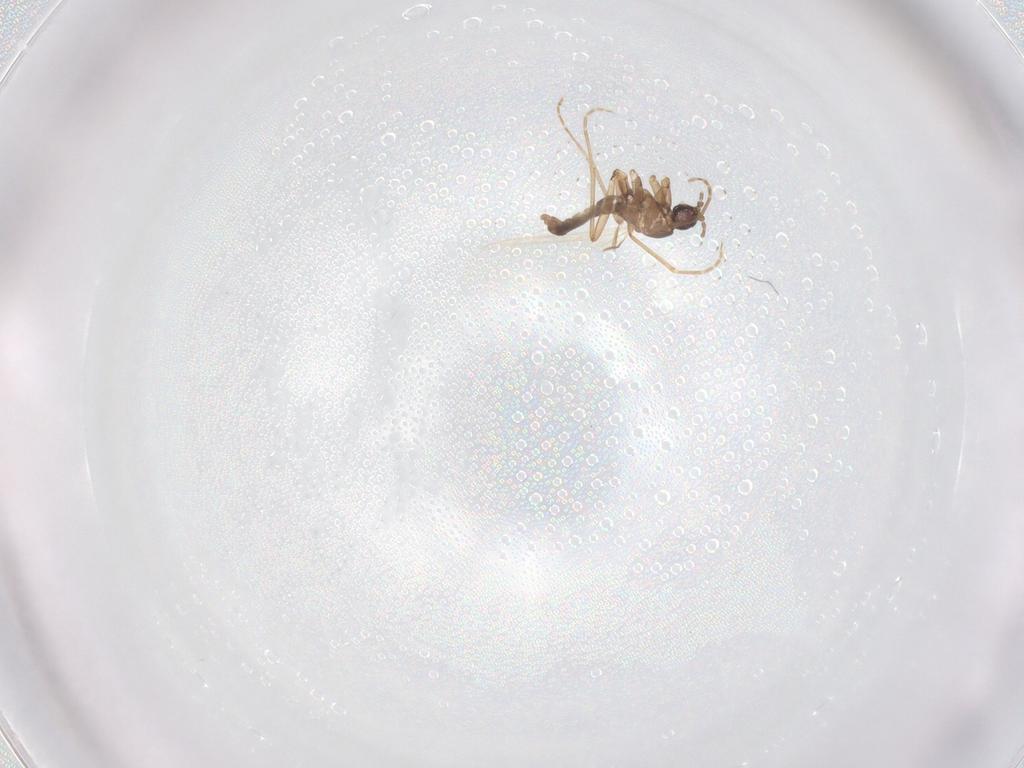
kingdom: Animalia
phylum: Arthropoda
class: Insecta
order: Diptera
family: Sciaridae
